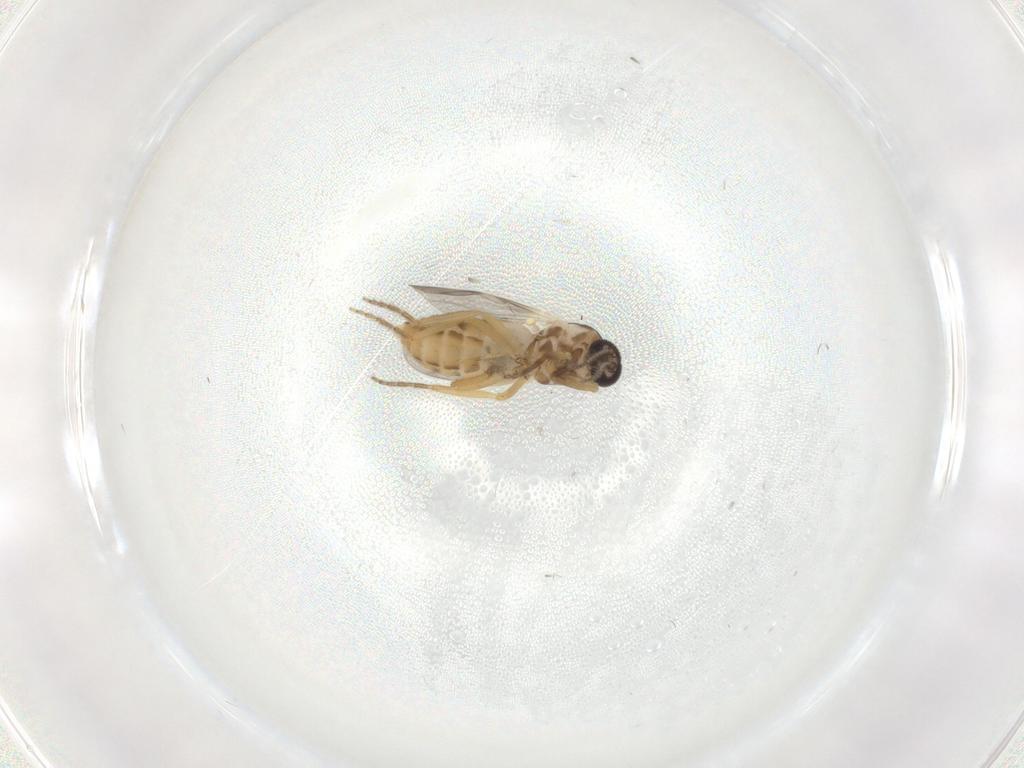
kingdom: Animalia
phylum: Arthropoda
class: Insecta
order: Diptera
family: Ceratopogonidae
